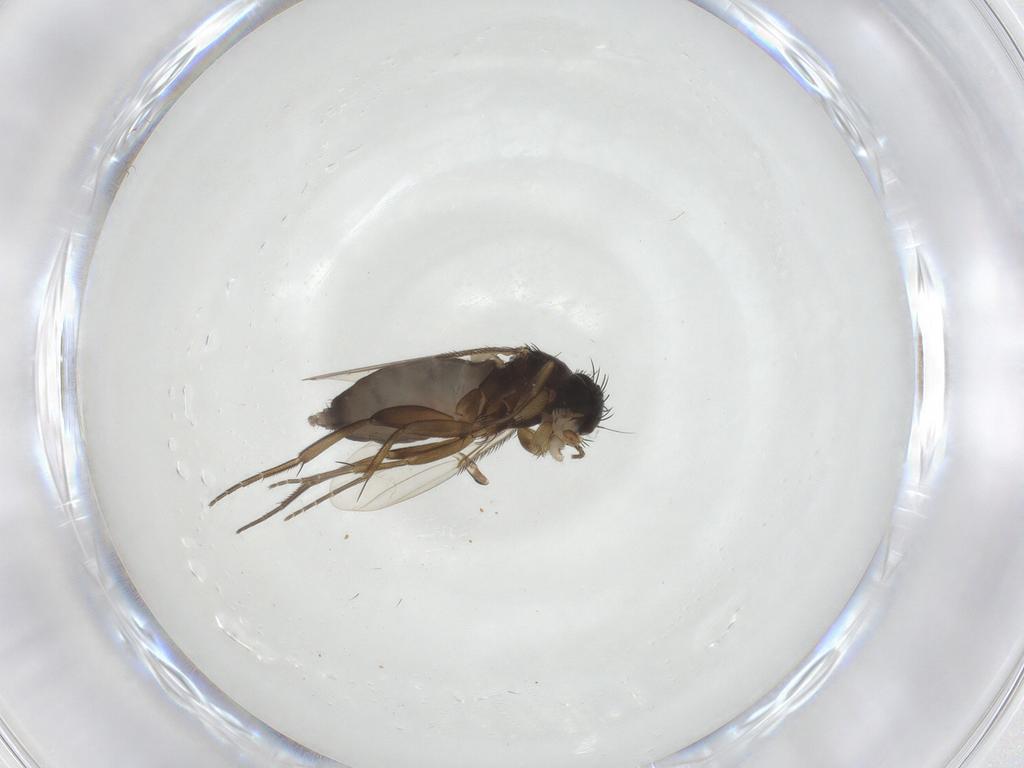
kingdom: Animalia
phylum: Arthropoda
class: Insecta
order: Diptera
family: Phoridae
